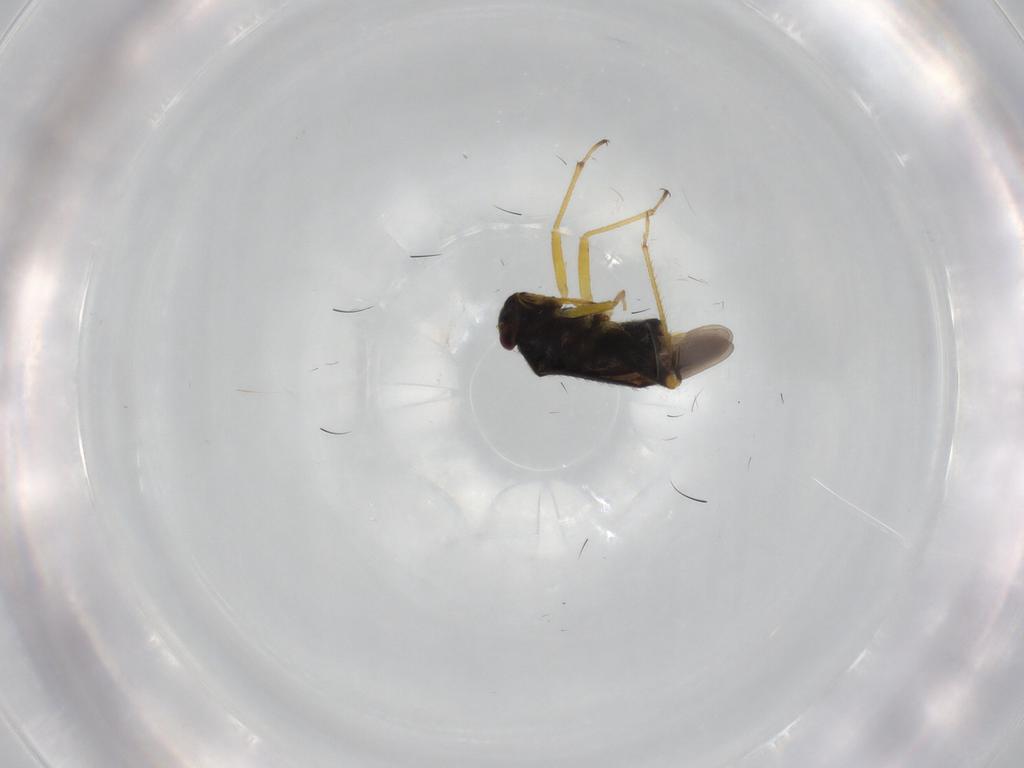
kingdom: Animalia
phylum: Arthropoda
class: Insecta
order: Hemiptera
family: Miridae
